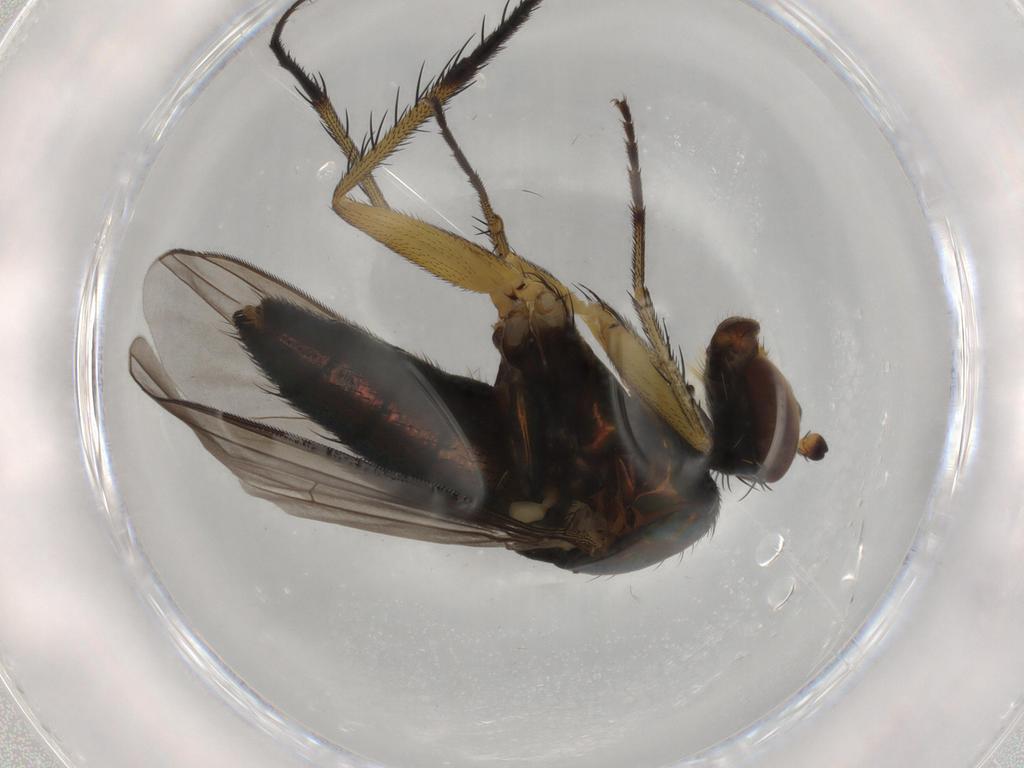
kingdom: Animalia
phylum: Arthropoda
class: Insecta
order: Diptera
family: Dolichopodidae
